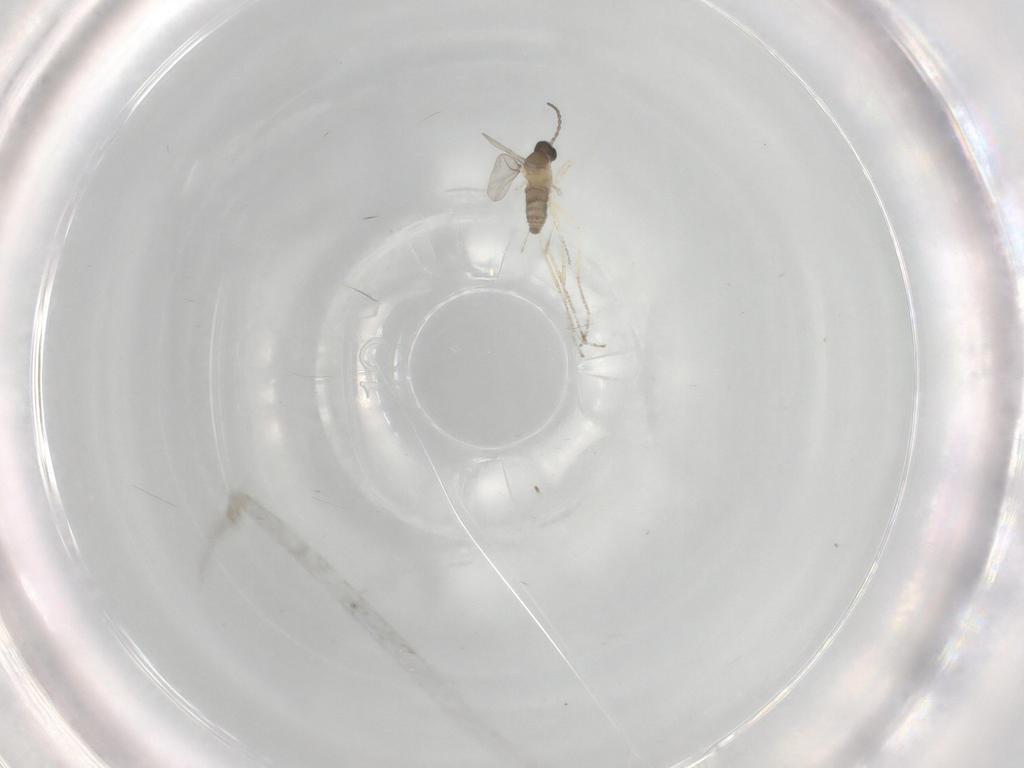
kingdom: Animalia
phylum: Arthropoda
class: Insecta
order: Diptera
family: Cecidomyiidae
